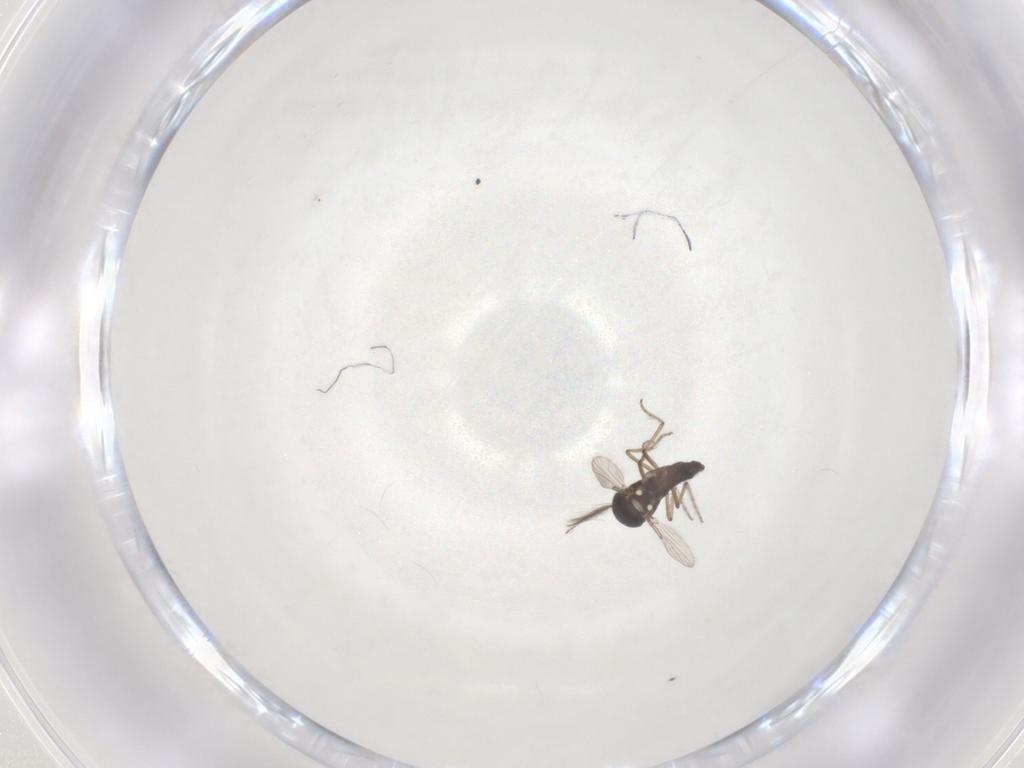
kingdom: Animalia
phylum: Arthropoda
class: Insecta
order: Diptera
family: Ceratopogonidae
